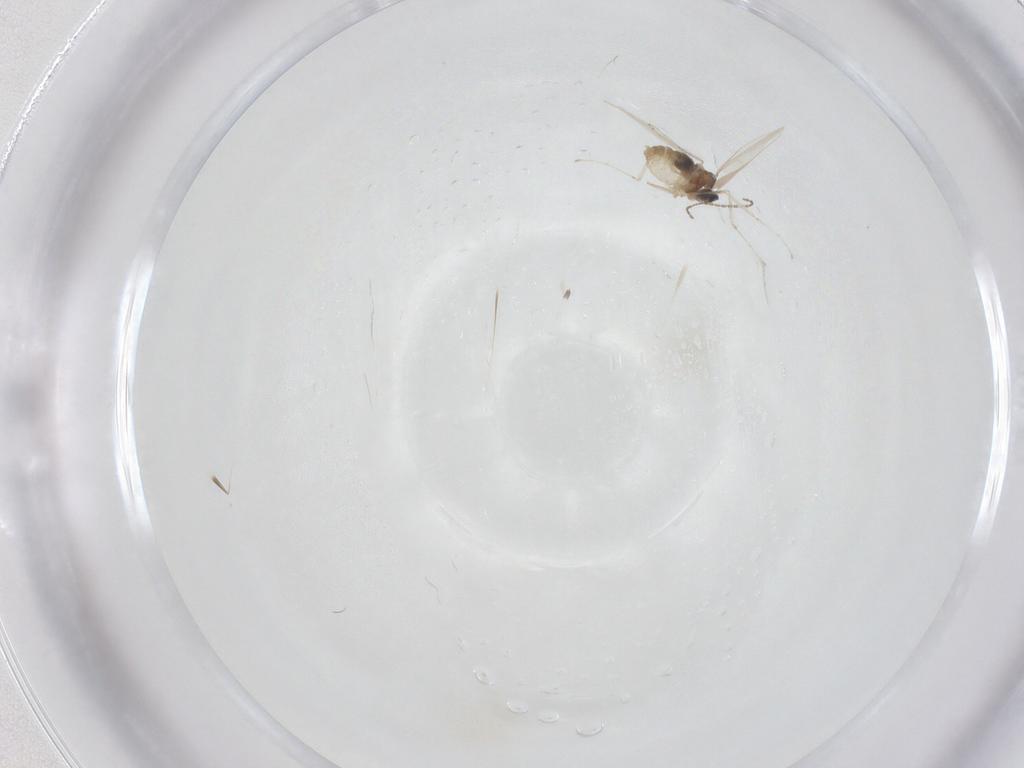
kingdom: Animalia
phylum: Arthropoda
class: Insecta
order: Diptera
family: Cecidomyiidae
